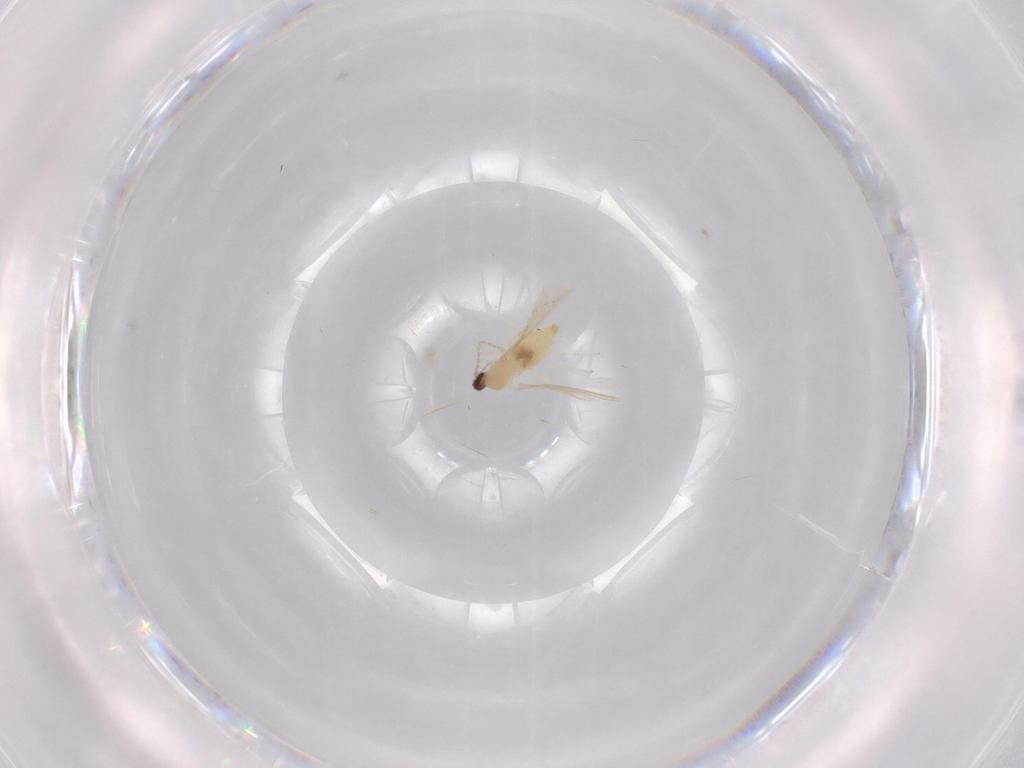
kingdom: Animalia
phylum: Arthropoda
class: Insecta
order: Diptera
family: Cecidomyiidae
